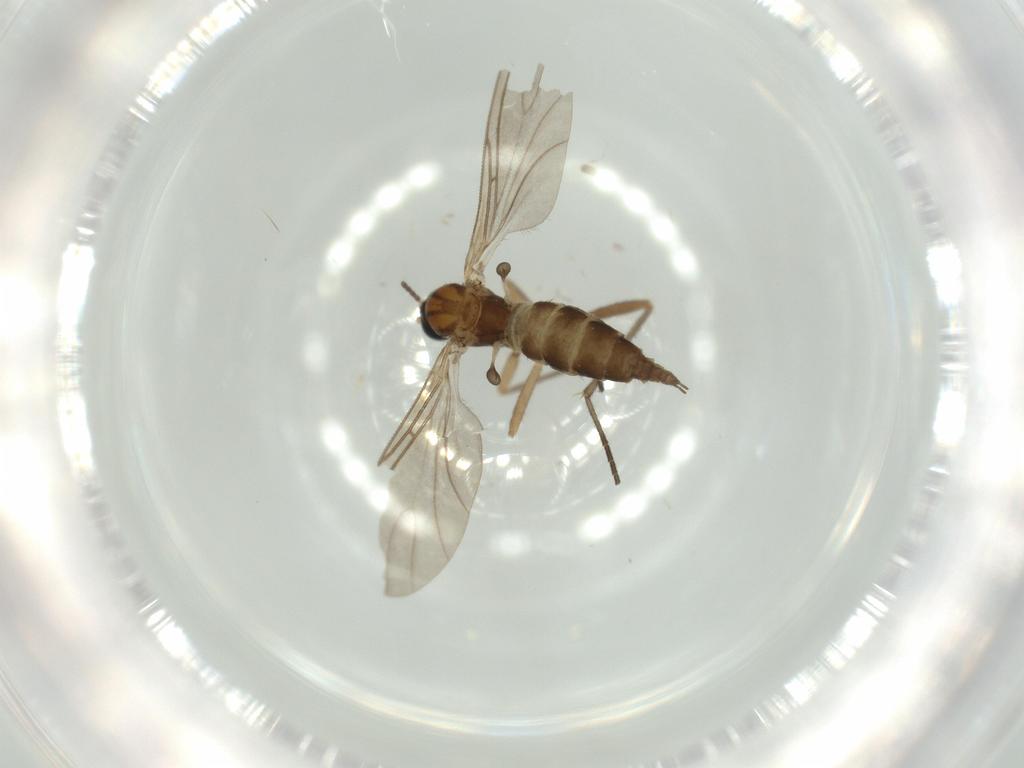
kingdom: Animalia
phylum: Arthropoda
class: Insecta
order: Diptera
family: Sciaridae
